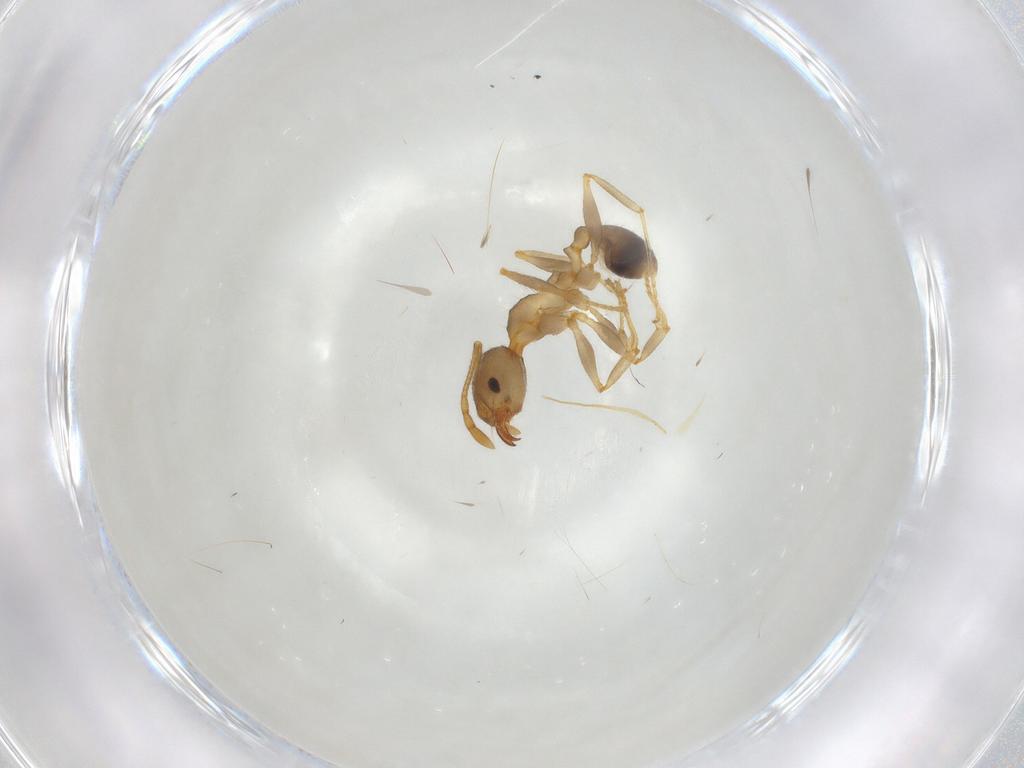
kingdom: Animalia
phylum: Arthropoda
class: Insecta
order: Hymenoptera
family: Formicidae
